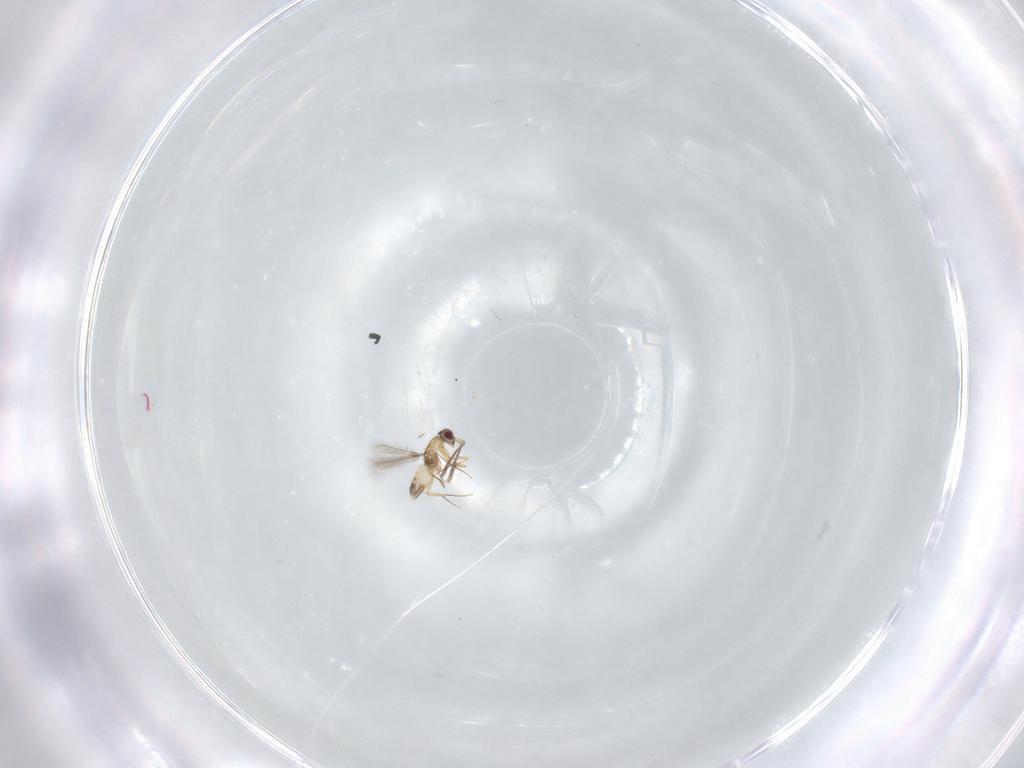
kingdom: Animalia
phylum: Arthropoda
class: Insecta
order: Hymenoptera
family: Mymaridae
